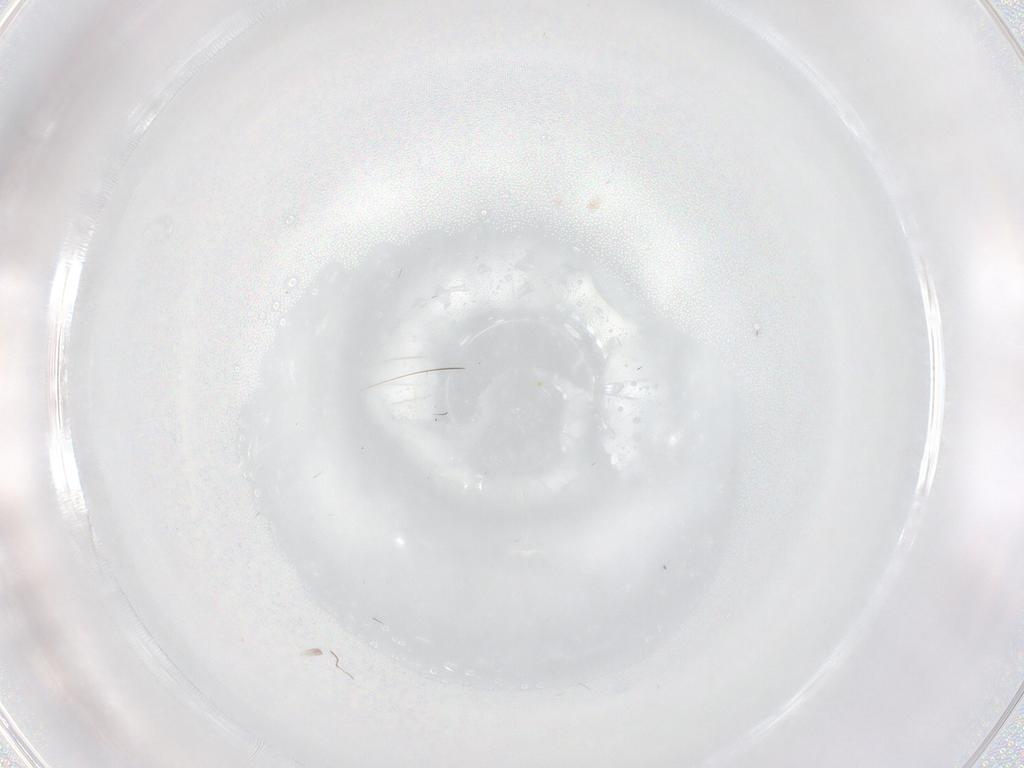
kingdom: Animalia
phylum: Arthropoda
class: Insecta
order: Diptera
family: Cecidomyiidae
